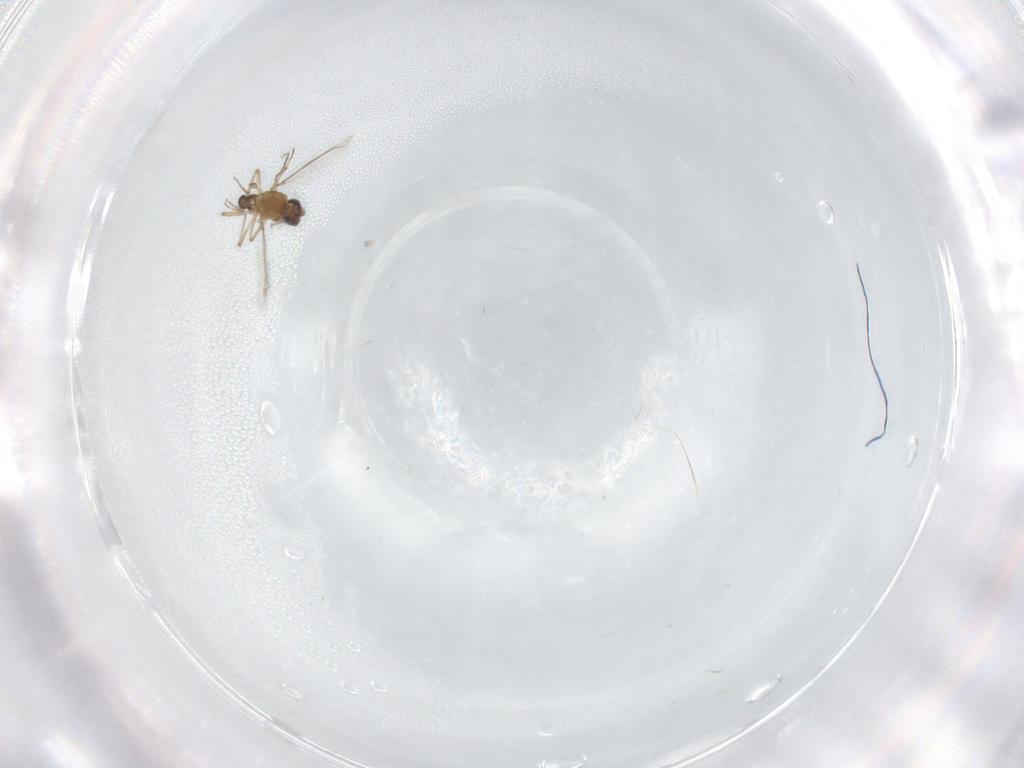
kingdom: Animalia
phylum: Arthropoda
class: Insecta
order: Diptera
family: Ceratopogonidae
